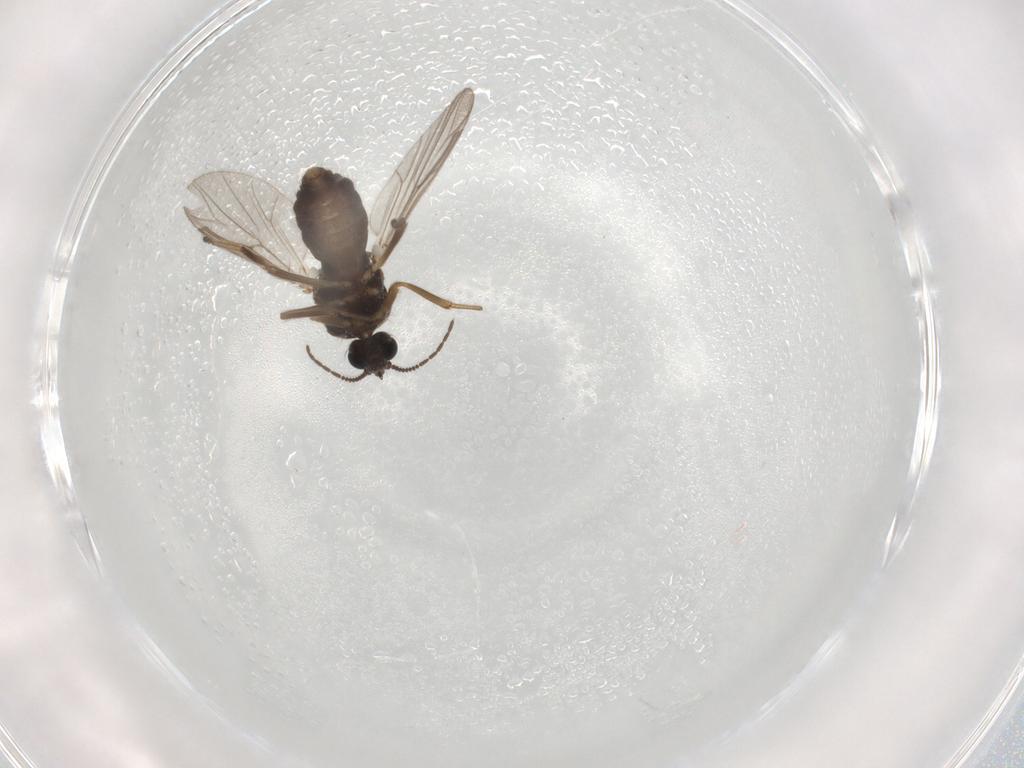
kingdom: Animalia
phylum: Arthropoda
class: Insecta
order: Diptera
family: Ceratopogonidae
